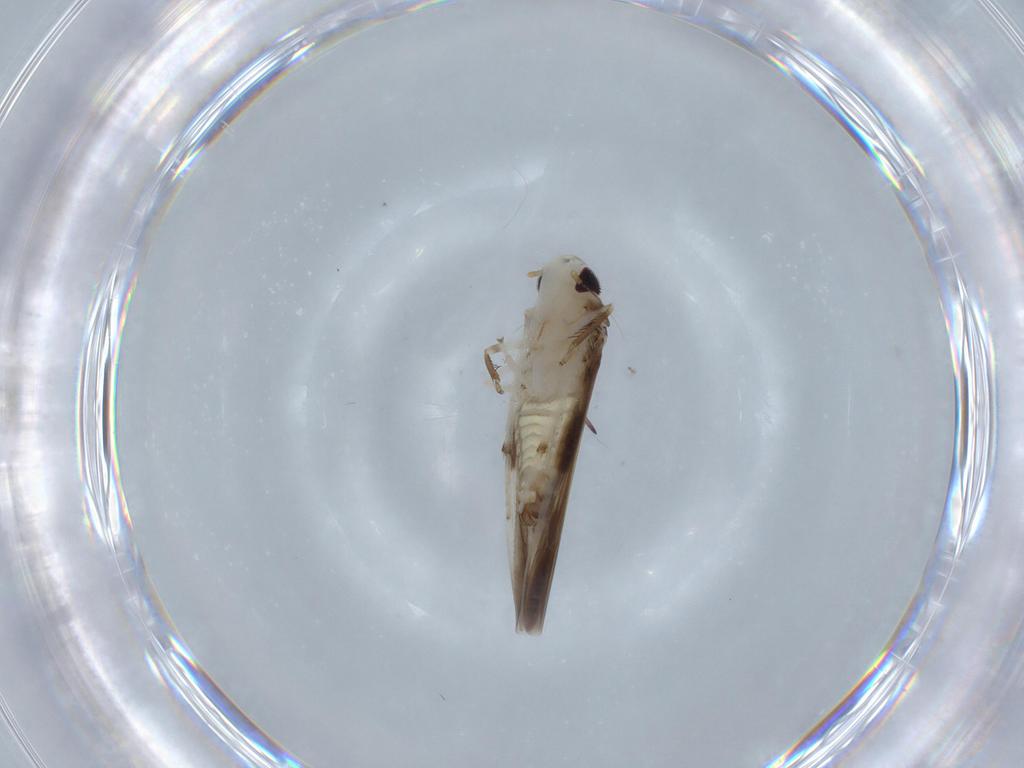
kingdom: Animalia
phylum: Arthropoda
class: Insecta
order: Hemiptera
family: Cicadellidae
